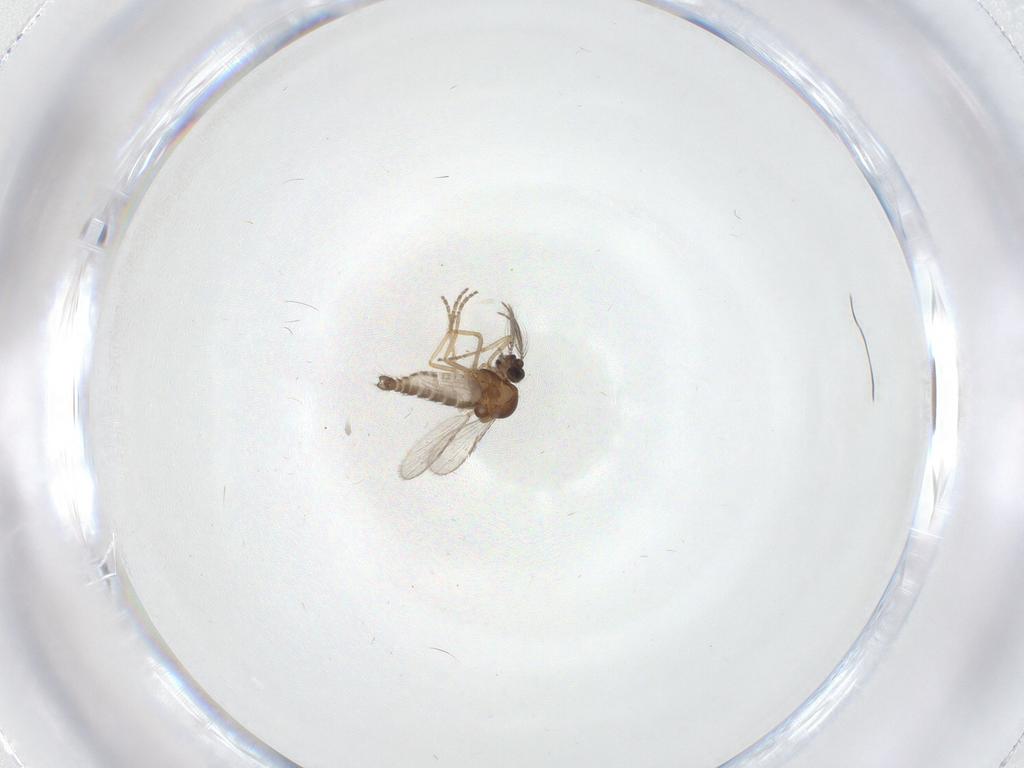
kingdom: Animalia
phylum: Arthropoda
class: Insecta
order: Diptera
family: Ceratopogonidae
